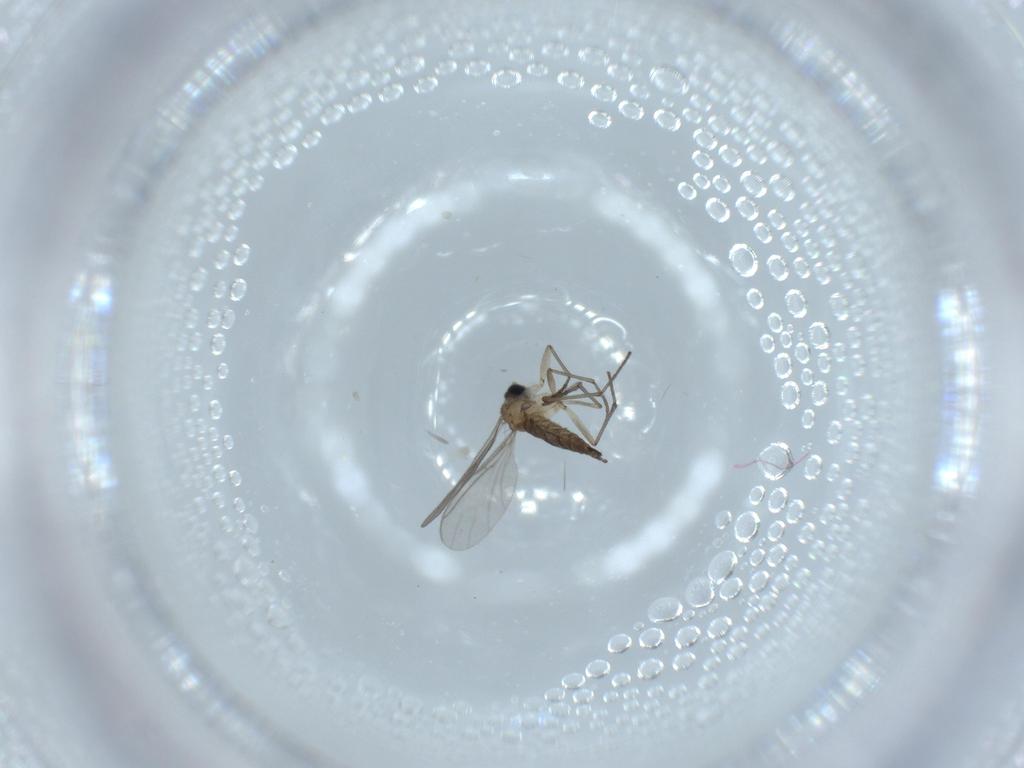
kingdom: Animalia
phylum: Arthropoda
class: Insecta
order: Diptera
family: Sciaridae
